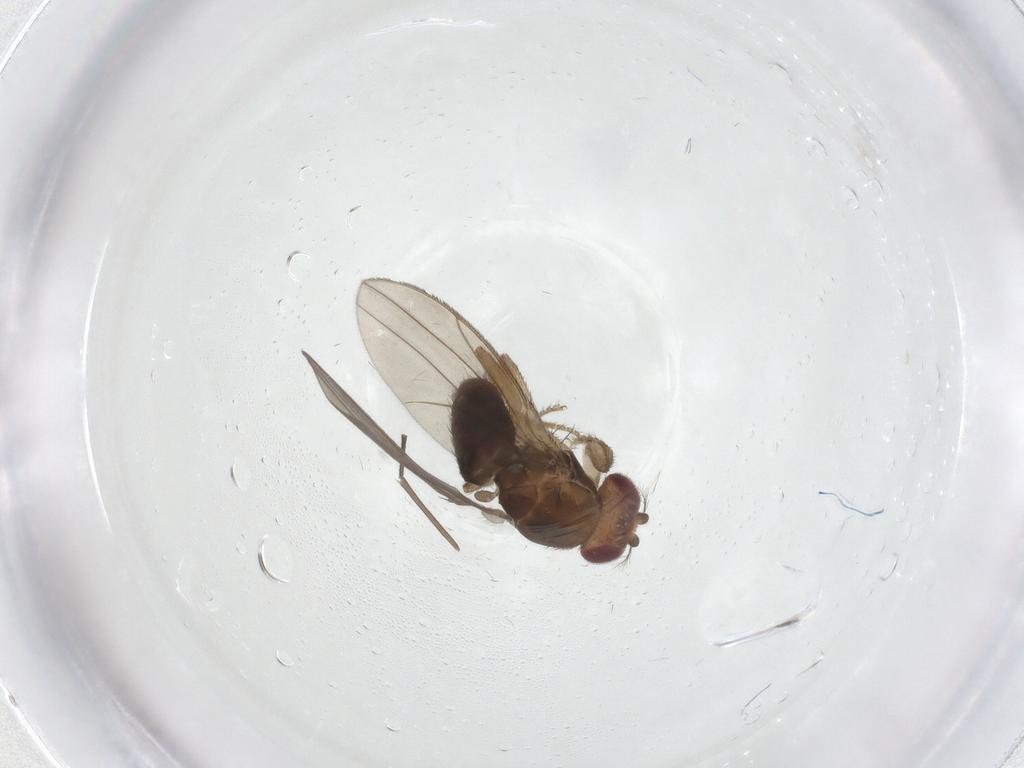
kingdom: Animalia
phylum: Arthropoda
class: Insecta
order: Diptera
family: Drosophilidae
